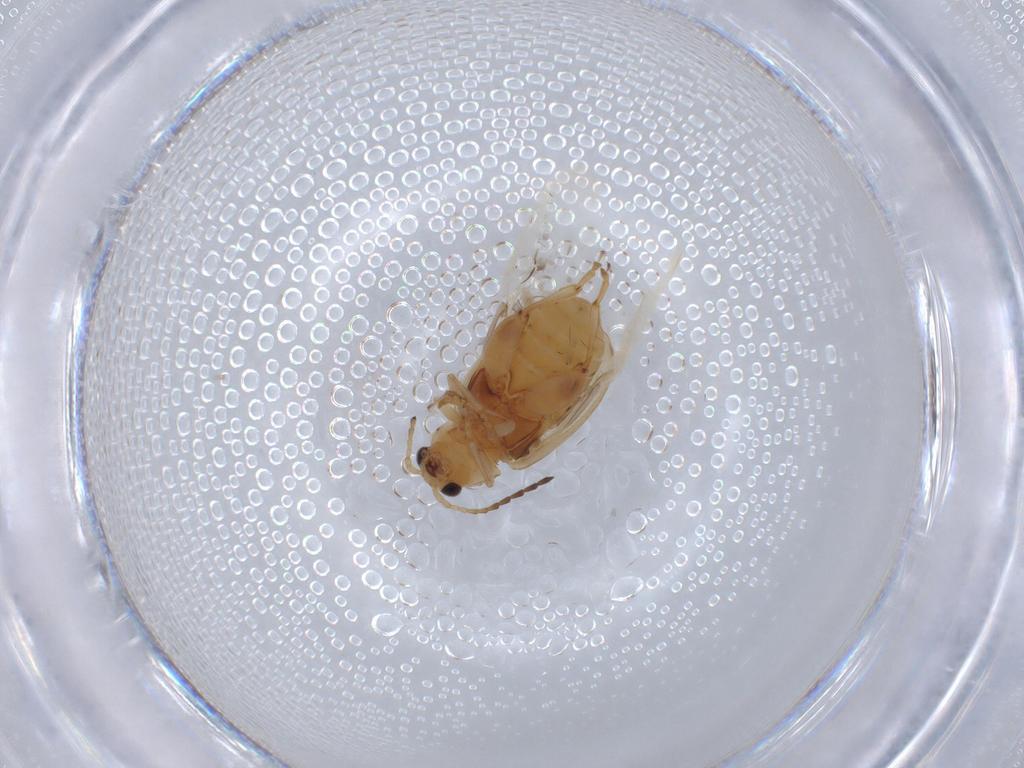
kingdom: Animalia
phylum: Arthropoda
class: Insecta
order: Coleoptera
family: Chrysomelidae
